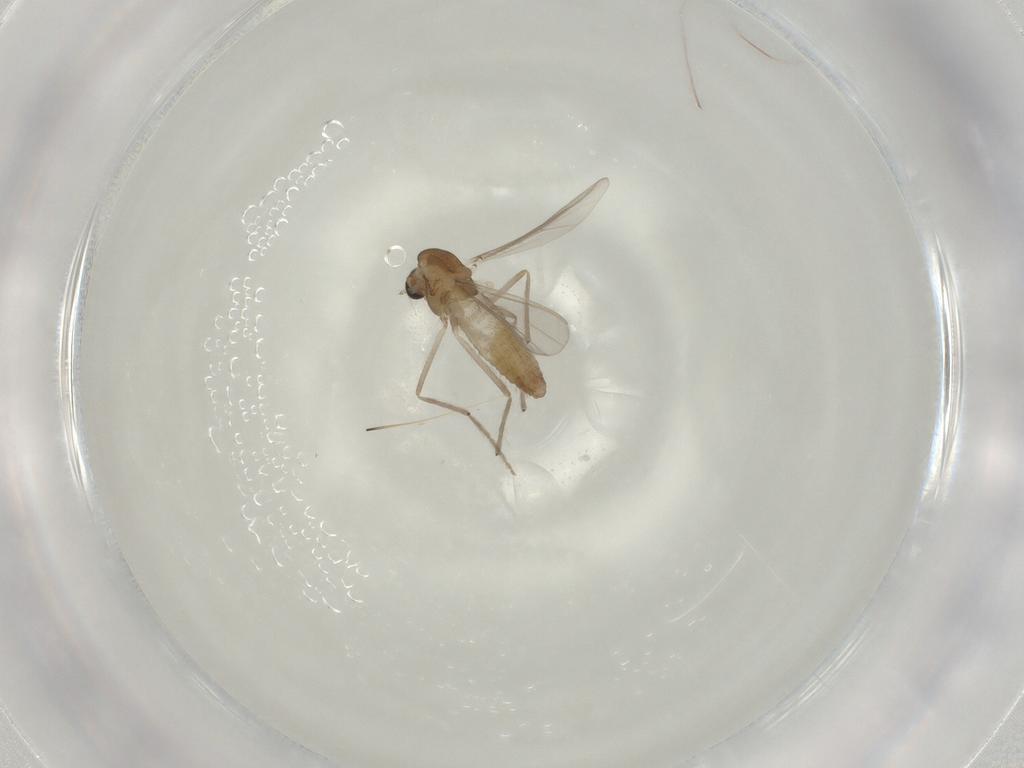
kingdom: Animalia
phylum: Arthropoda
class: Insecta
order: Diptera
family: Chironomidae
